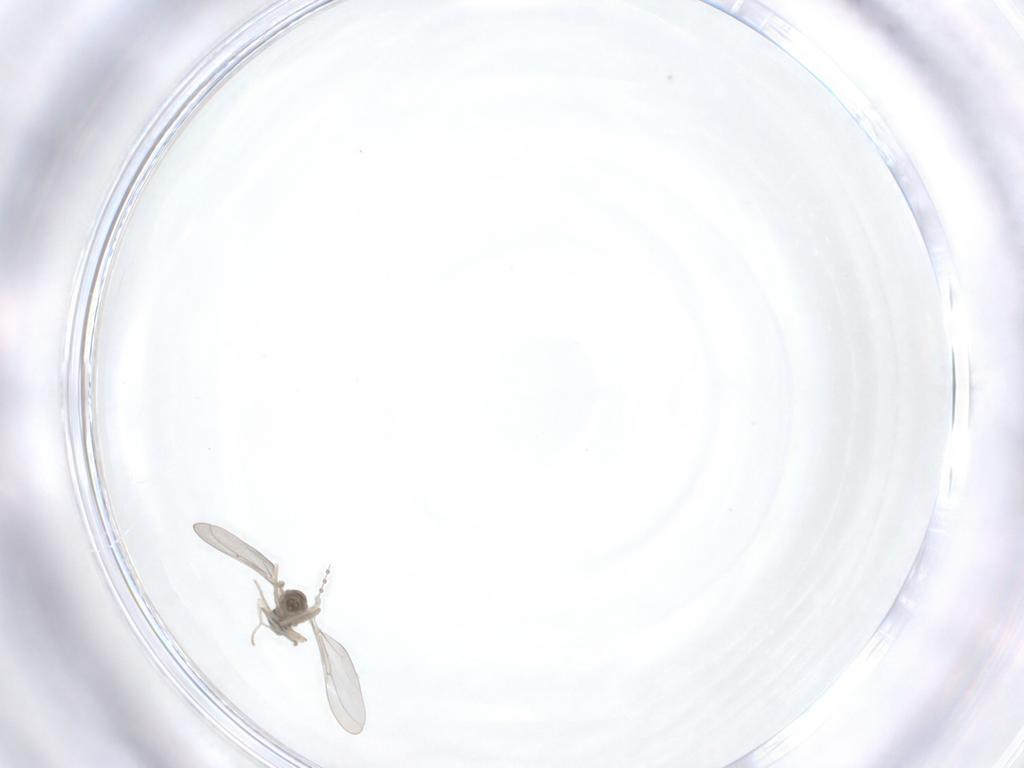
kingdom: Animalia
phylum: Arthropoda
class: Insecta
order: Diptera
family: Cecidomyiidae
